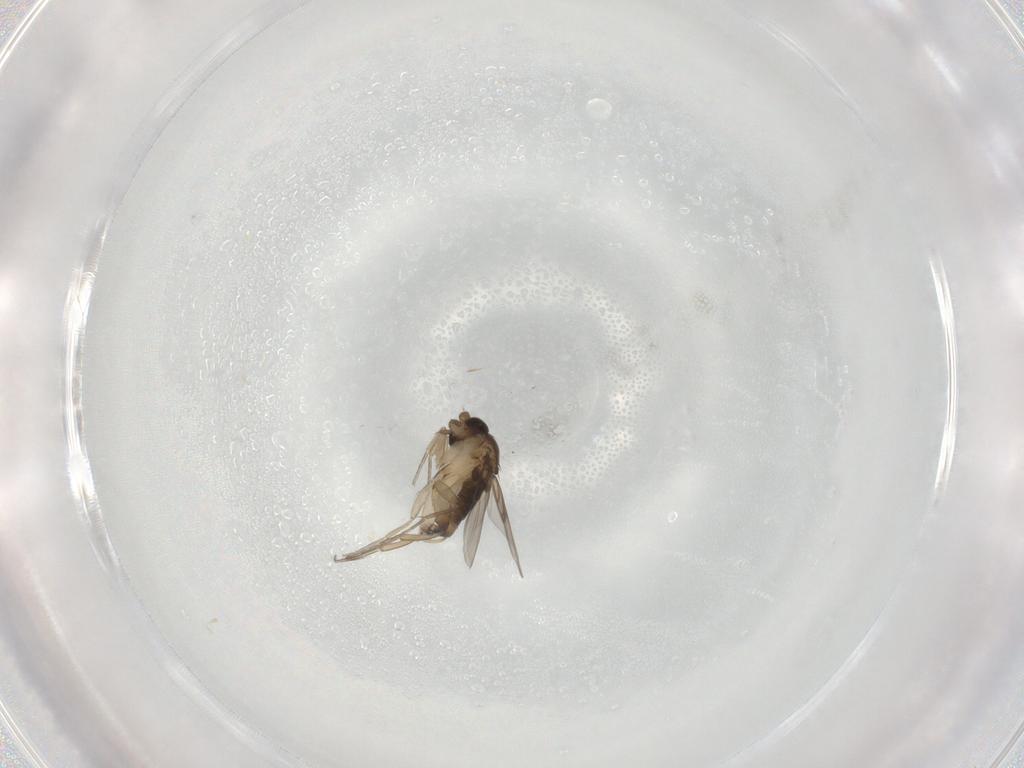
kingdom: Animalia
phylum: Arthropoda
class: Insecta
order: Diptera
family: Phoridae
